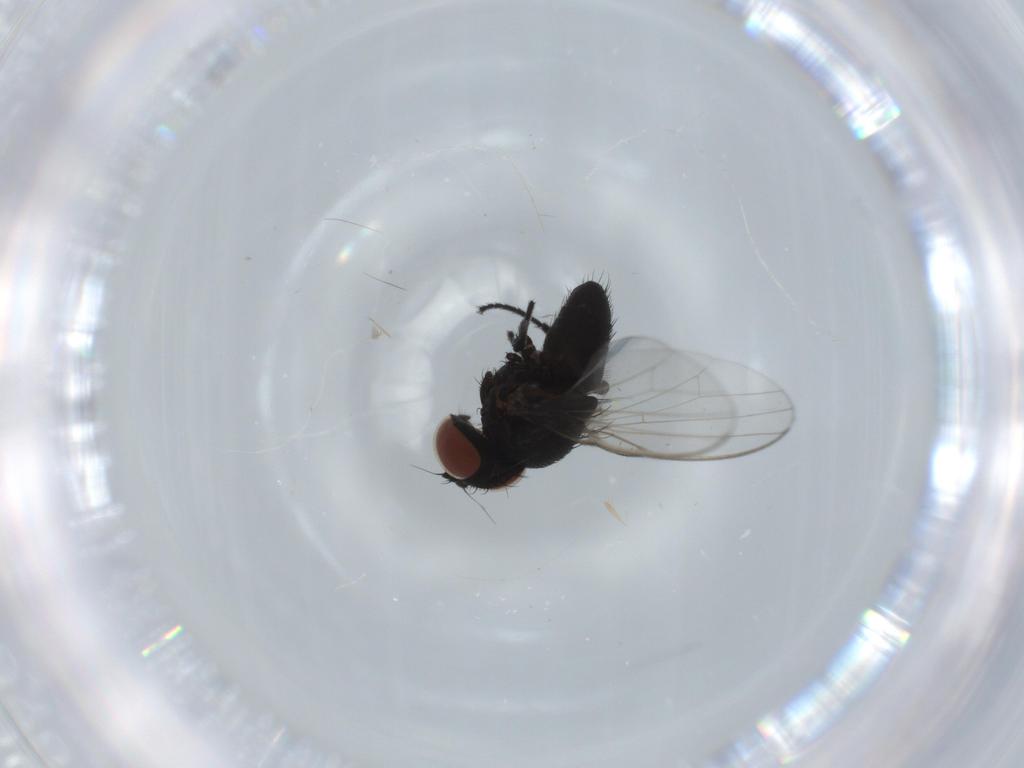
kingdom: Animalia
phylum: Arthropoda
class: Insecta
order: Diptera
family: Milichiidae
